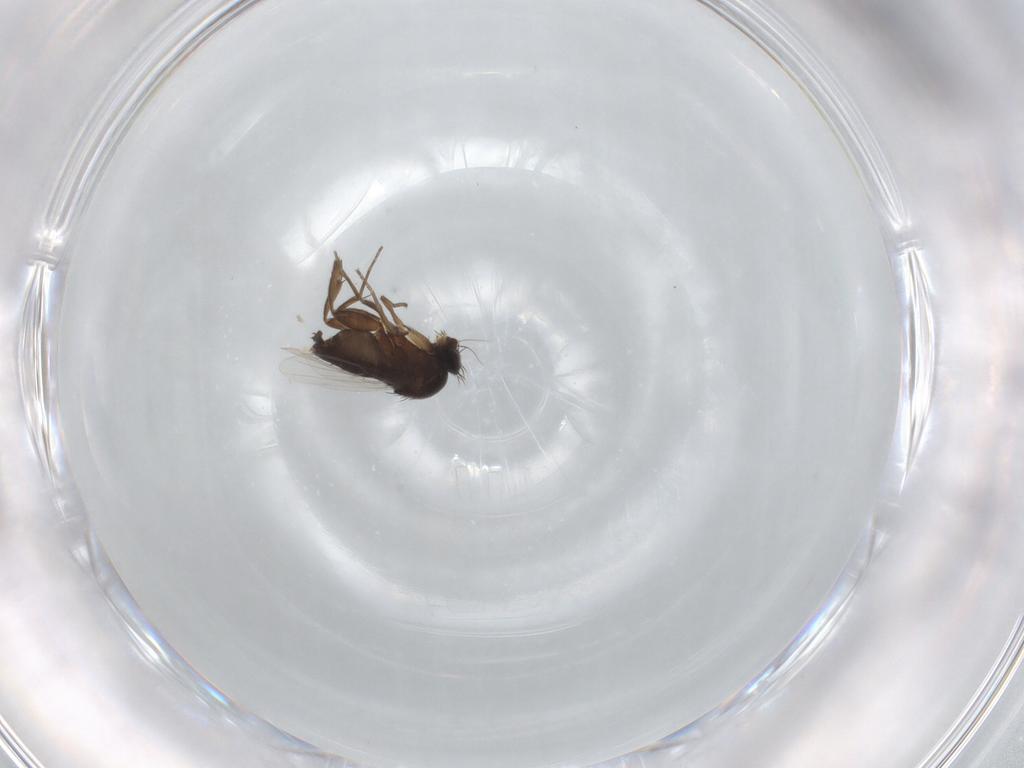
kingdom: Animalia
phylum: Arthropoda
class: Insecta
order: Diptera
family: Phoridae
